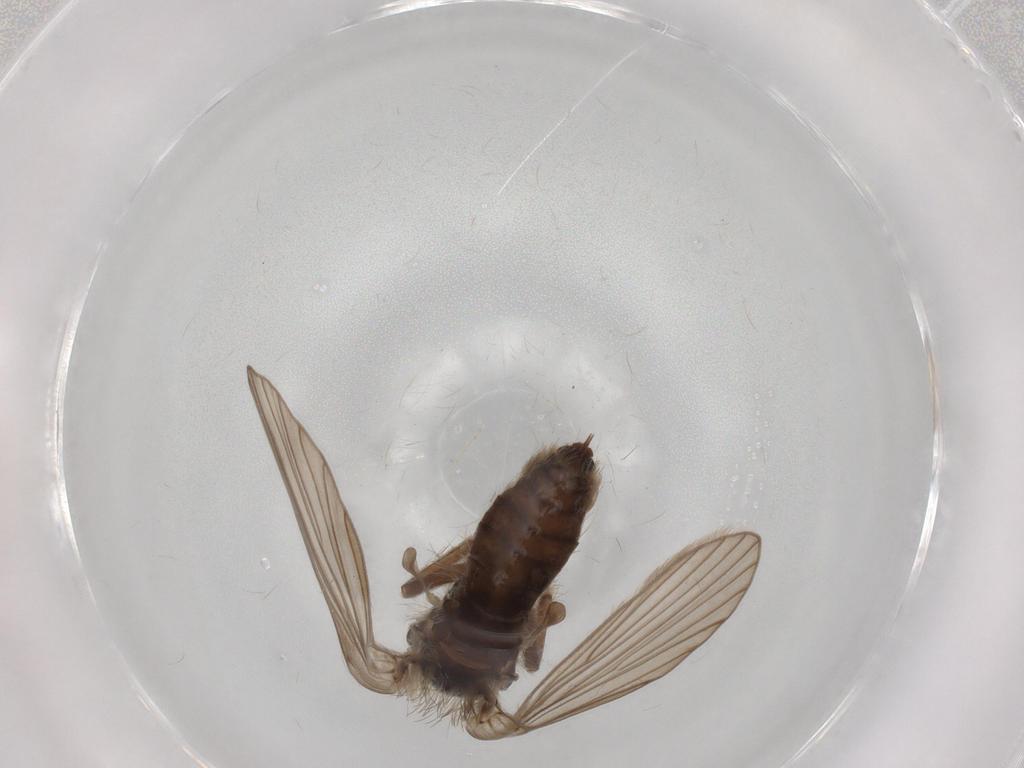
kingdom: Animalia
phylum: Arthropoda
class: Insecta
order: Diptera
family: Psychodidae
